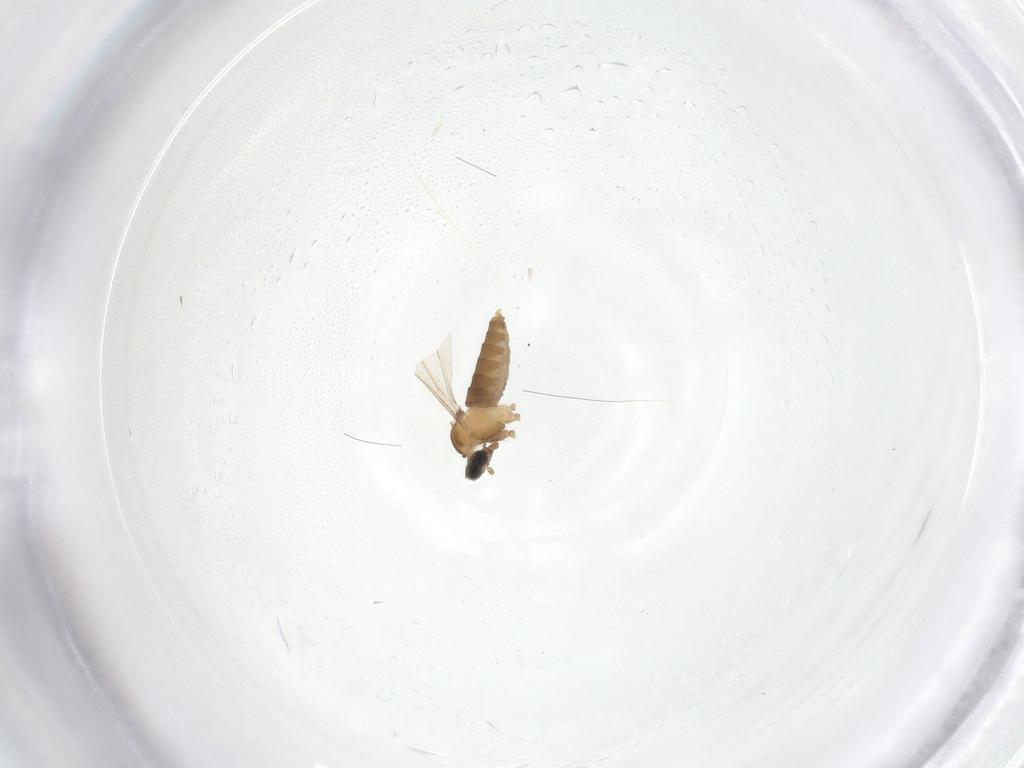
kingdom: Animalia
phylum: Arthropoda
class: Insecta
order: Diptera
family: Cecidomyiidae
